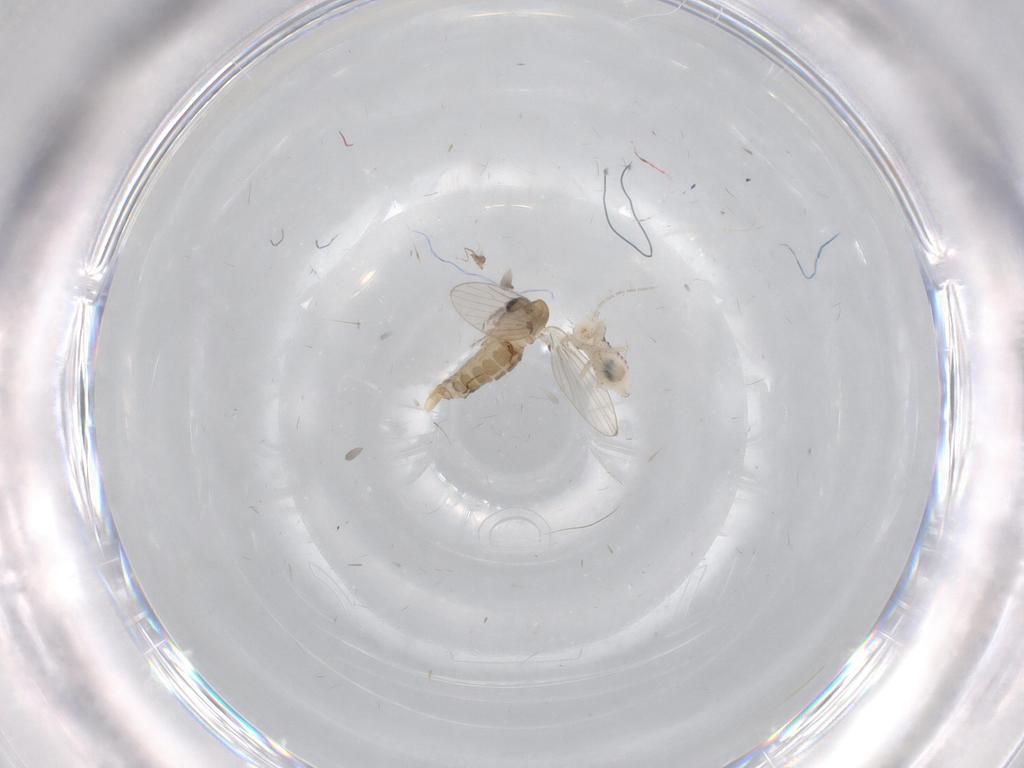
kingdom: Animalia
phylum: Arthropoda
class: Insecta
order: Diptera
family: Psychodidae
